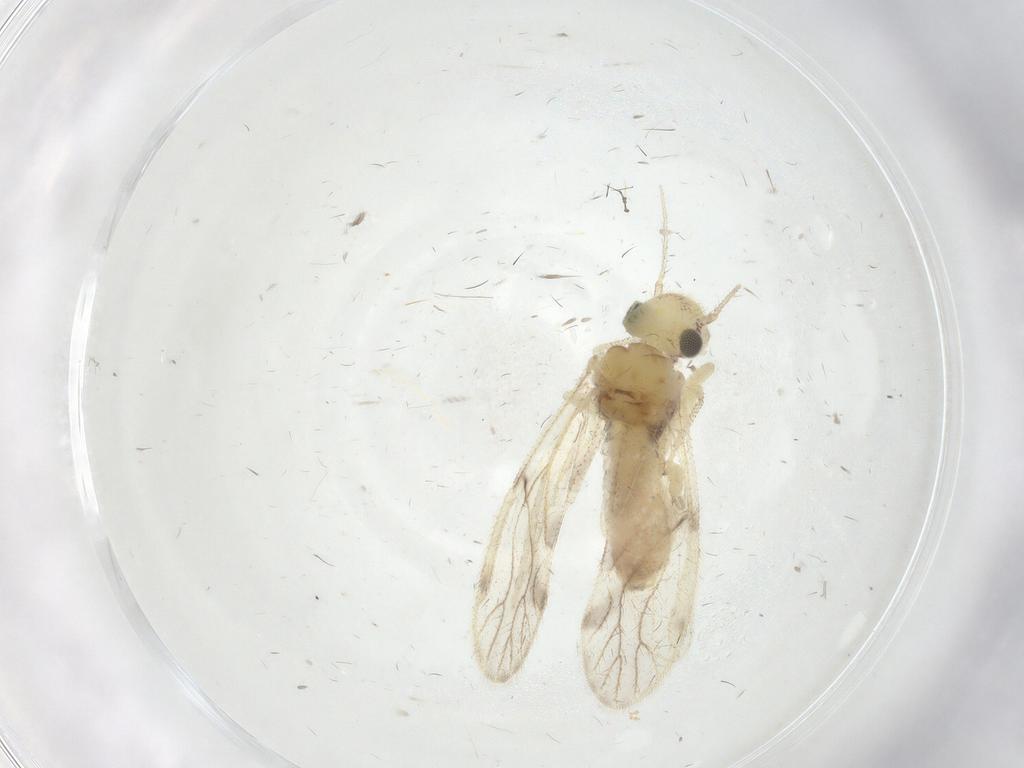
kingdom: Animalia
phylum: Arthropoda
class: Insecta
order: Psocodea
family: Pseudocaeciliidae
